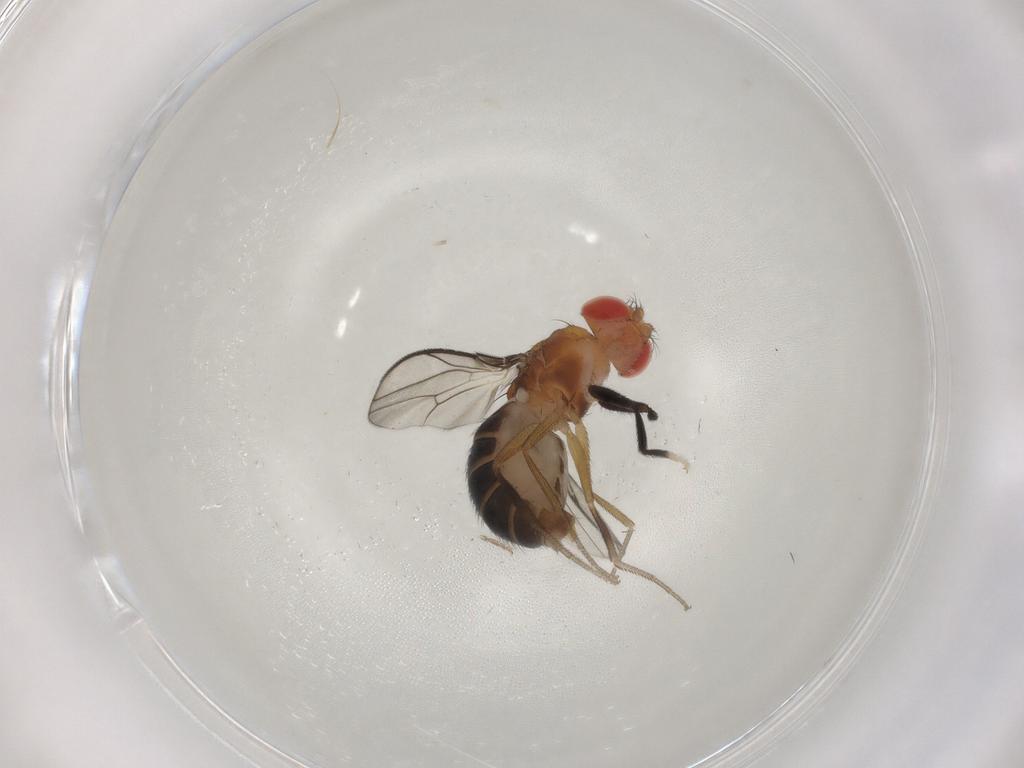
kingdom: Animalia
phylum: Arthropoda
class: Insecta
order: Diptera
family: Drosophilidae
